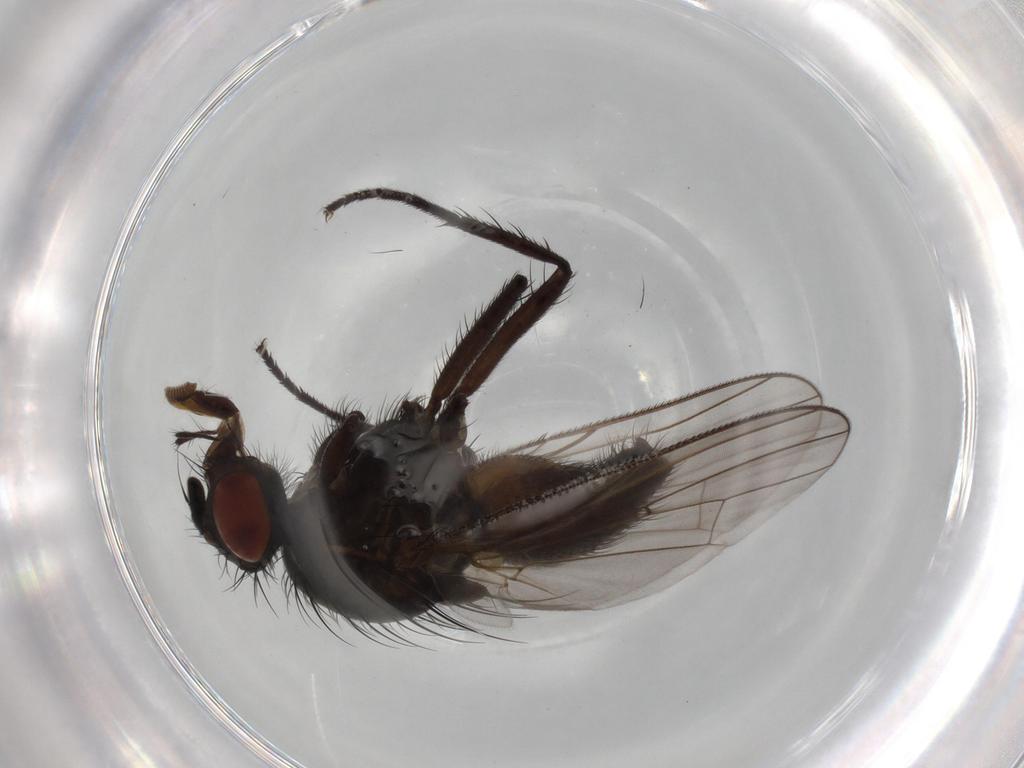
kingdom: Animalia
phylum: Arthropoda
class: Insecta
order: Diptera
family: Anthomyiidae
